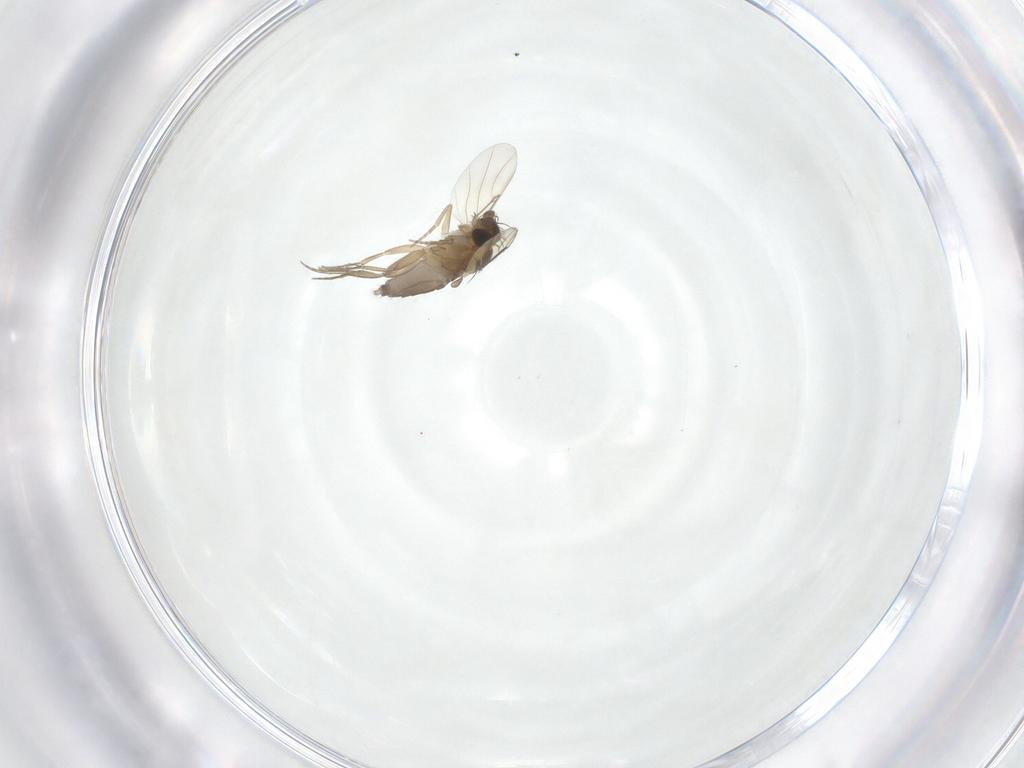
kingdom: Animalia
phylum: Arthropoda
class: Insecta
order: Diptera
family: Phoridae
